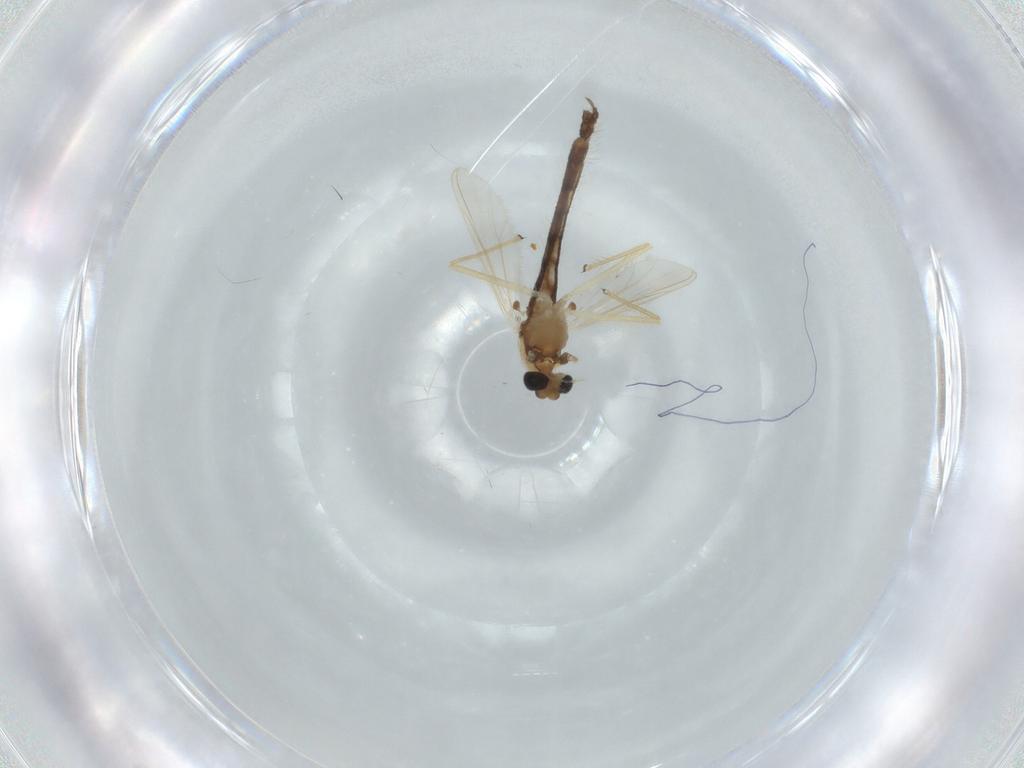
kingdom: Animalia
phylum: Arthropoda
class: Insecta
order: Diptera
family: Chironomidae
